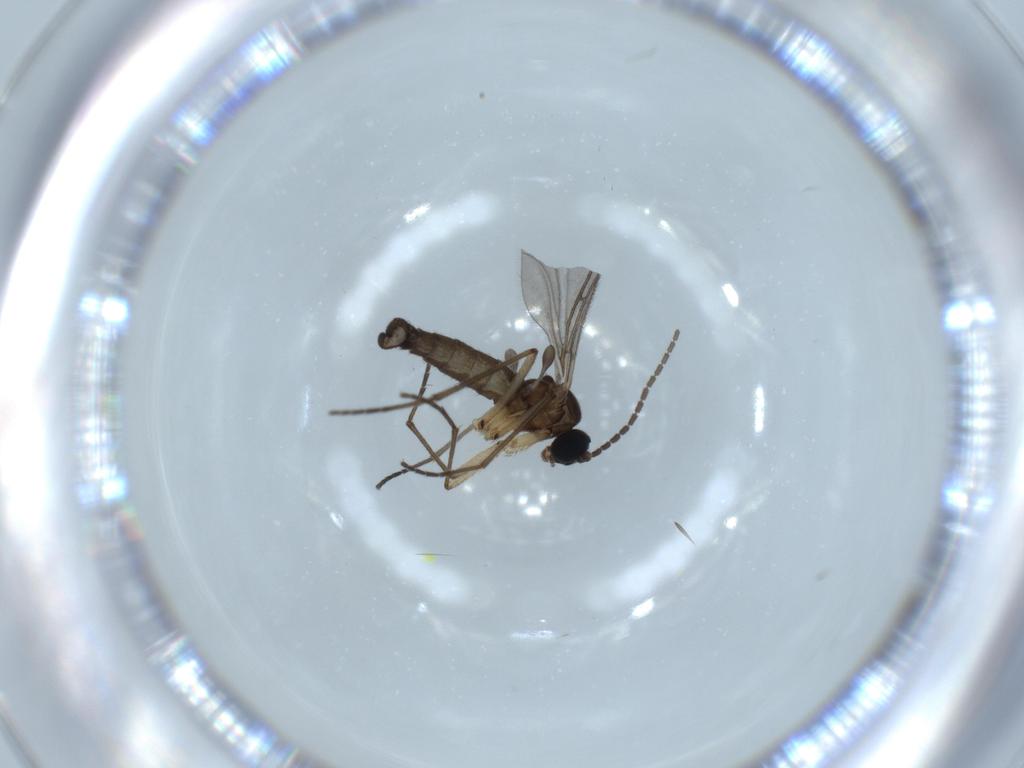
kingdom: Animalia
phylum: Arthropoda
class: Insecta
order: Diptera
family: Sciaridae
